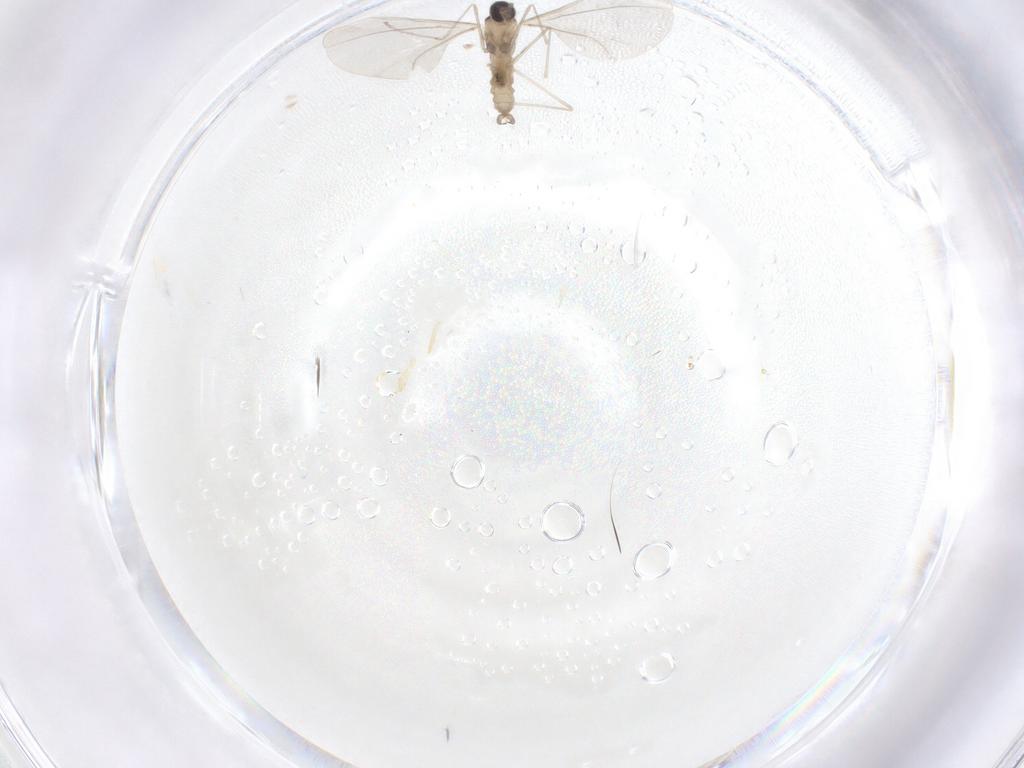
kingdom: Animalia
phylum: Arthropoda
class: Insecta
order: Diptera
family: Cecidomyiidae
